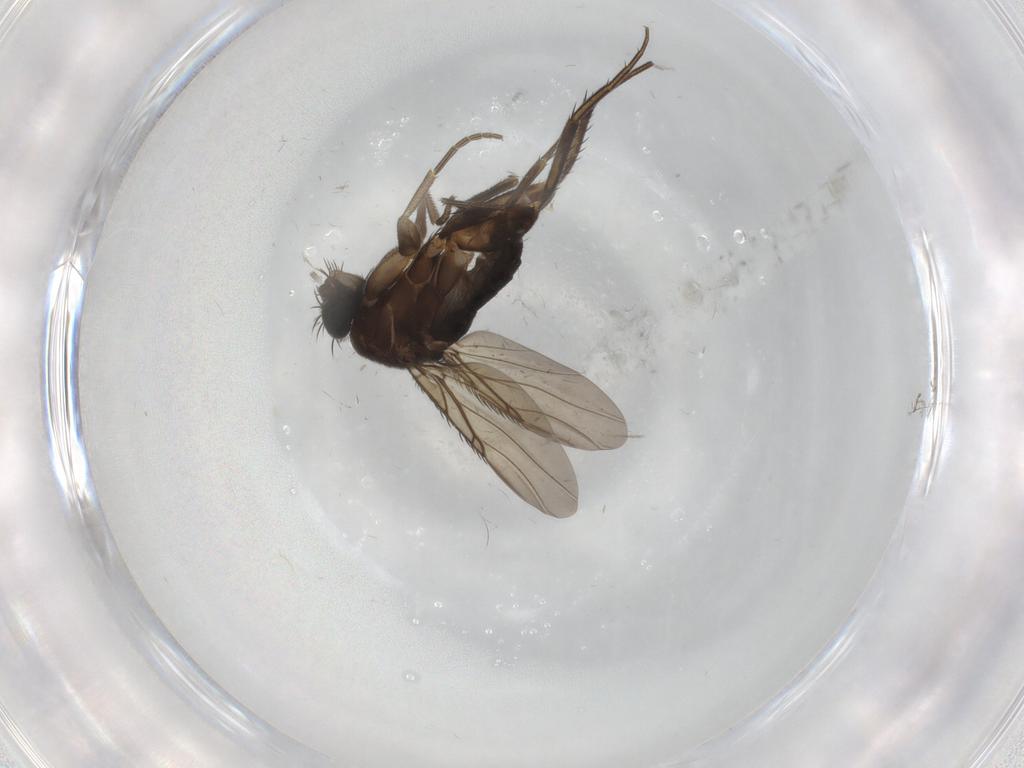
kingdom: Animalia
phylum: Arthropoda
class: Insecta
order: Diptera
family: Phoridae
